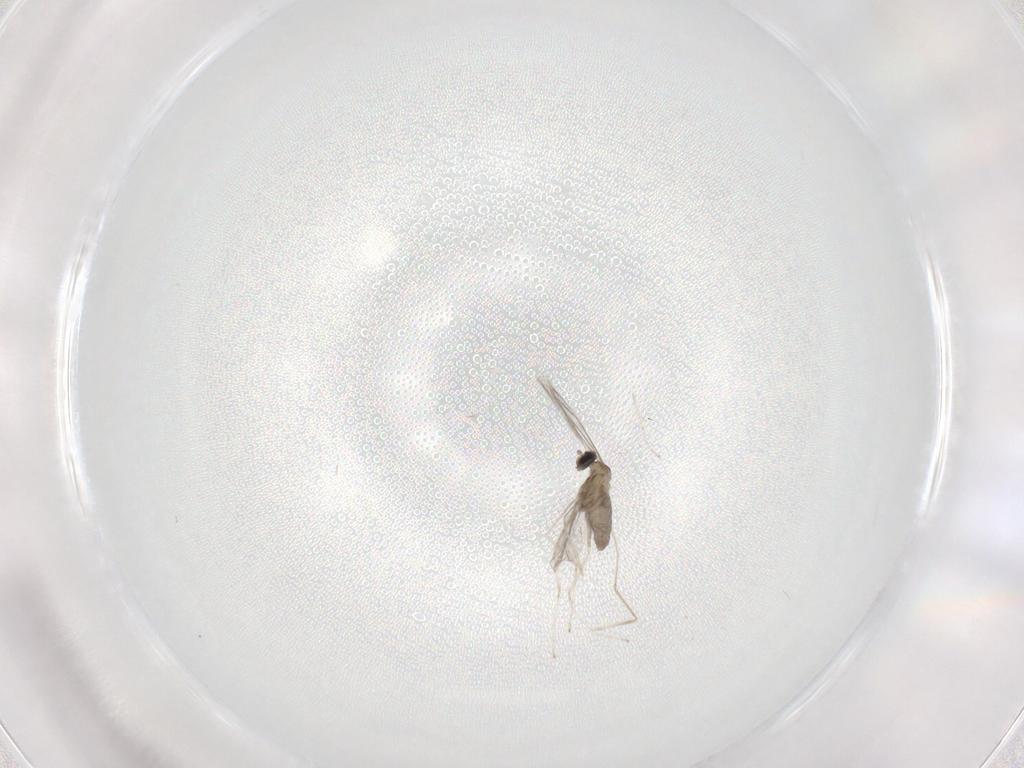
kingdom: Animalia
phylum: Arthropoda
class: Insecta
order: Diptera
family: Cecidomyiidae
